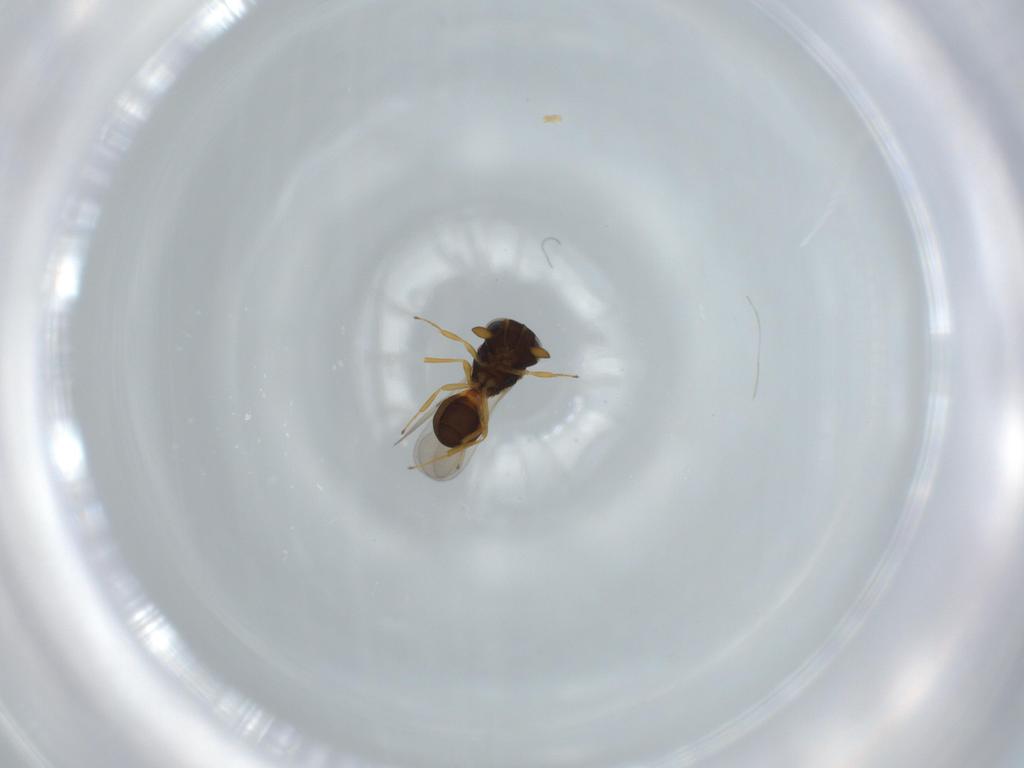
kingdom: Animalia
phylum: Arthropoda
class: Insecta
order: Hymenoptera
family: Scelionidae
